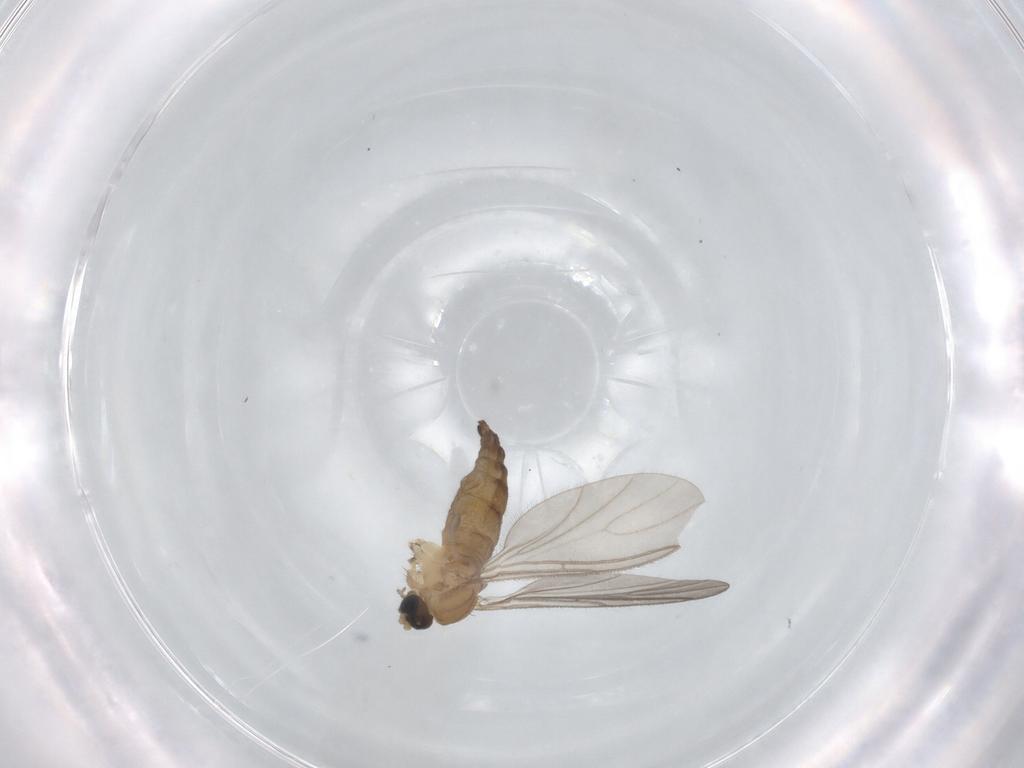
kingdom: Animalia
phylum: Arthropoda
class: Insecta
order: Diptera
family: Sciaridae
